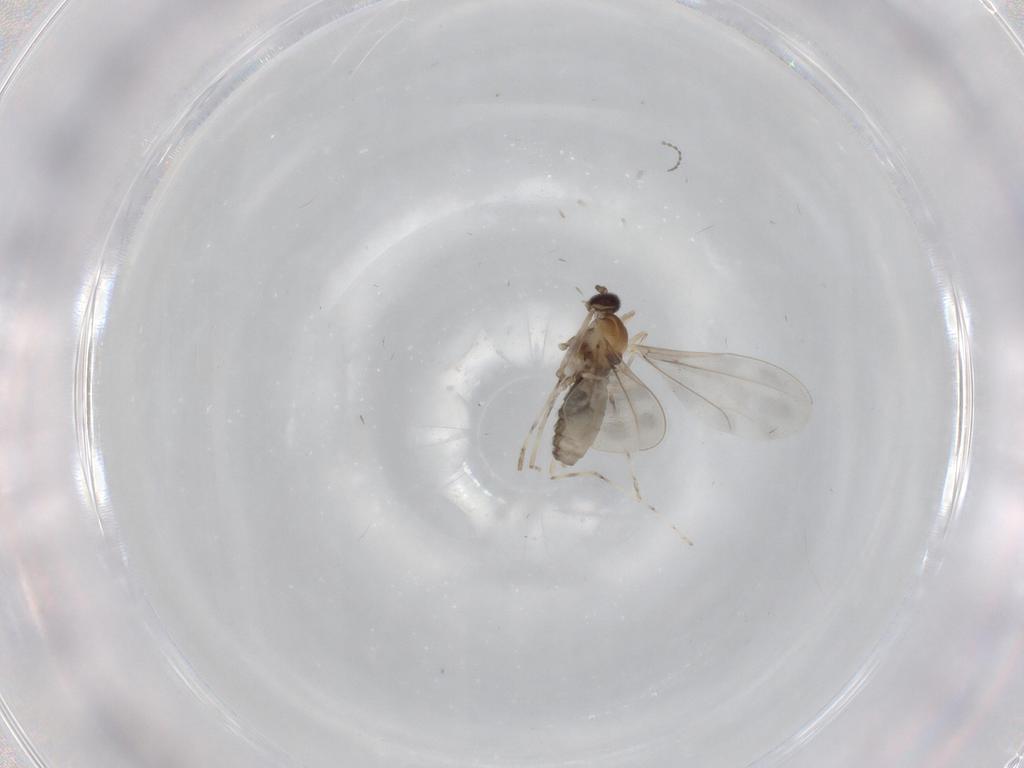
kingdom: Animalia
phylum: Arthropoda
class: Insecta
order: Diptera
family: Cecidomyiidae
